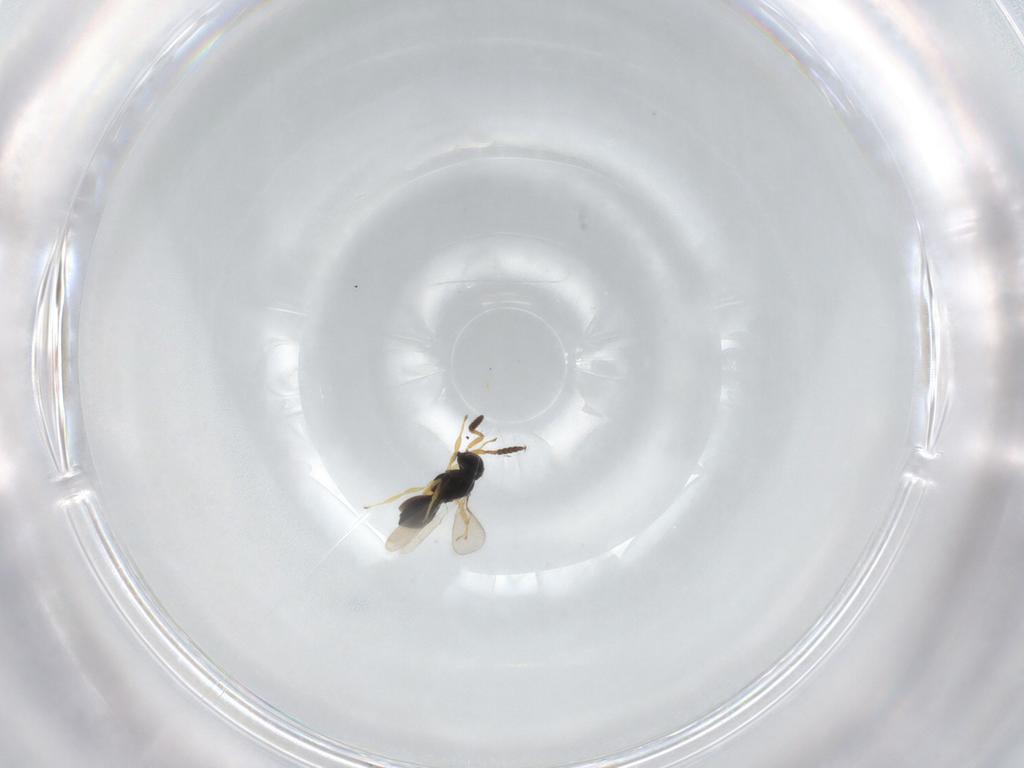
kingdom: Animalia
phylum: Arthropoda
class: Insecta
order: Hymenoptera
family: Scelionidae
